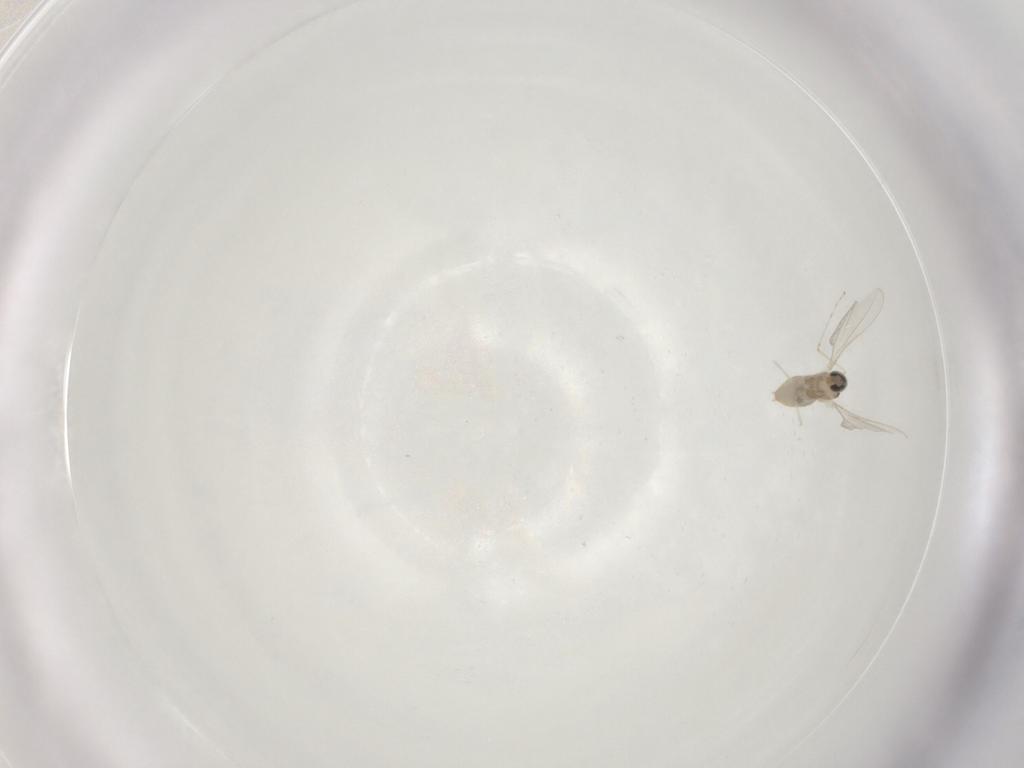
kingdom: Animalia
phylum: Arthropoda
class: Insecta
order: Diptera
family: Cecidomyiidae
